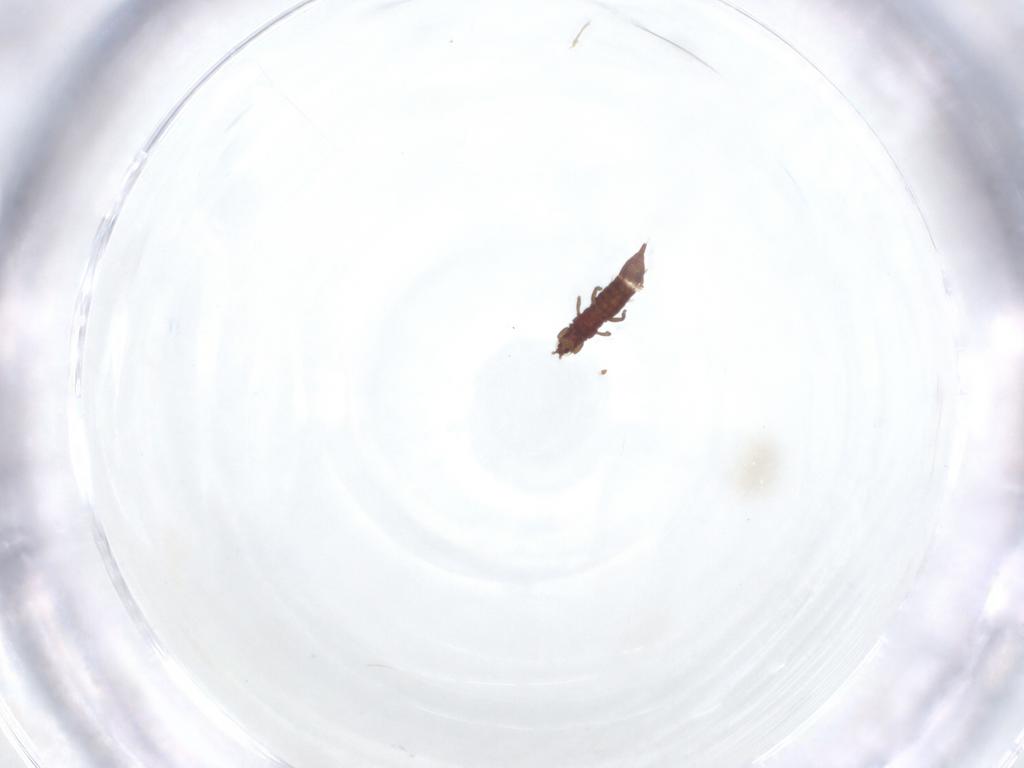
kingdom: Animalia
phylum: Arthropoda
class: Insecta
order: Thysanoptera
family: Phlaeothripidae
